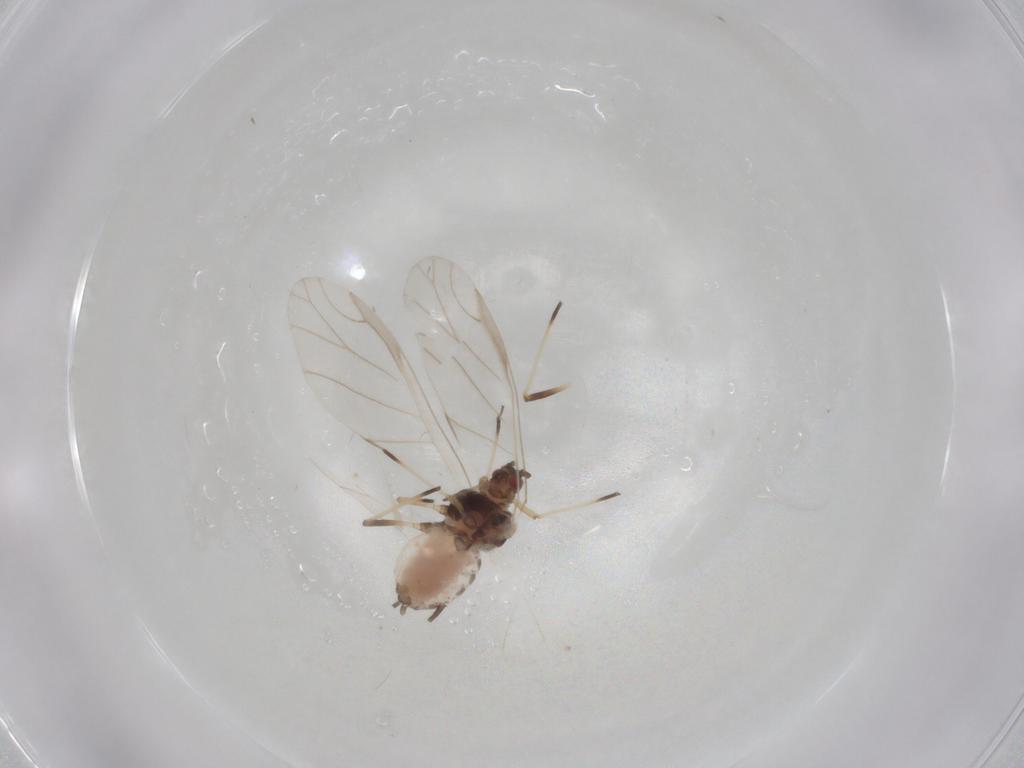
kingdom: Animalia
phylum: Arthropoda
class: Insecta
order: Hemiptera
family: Aphididae
